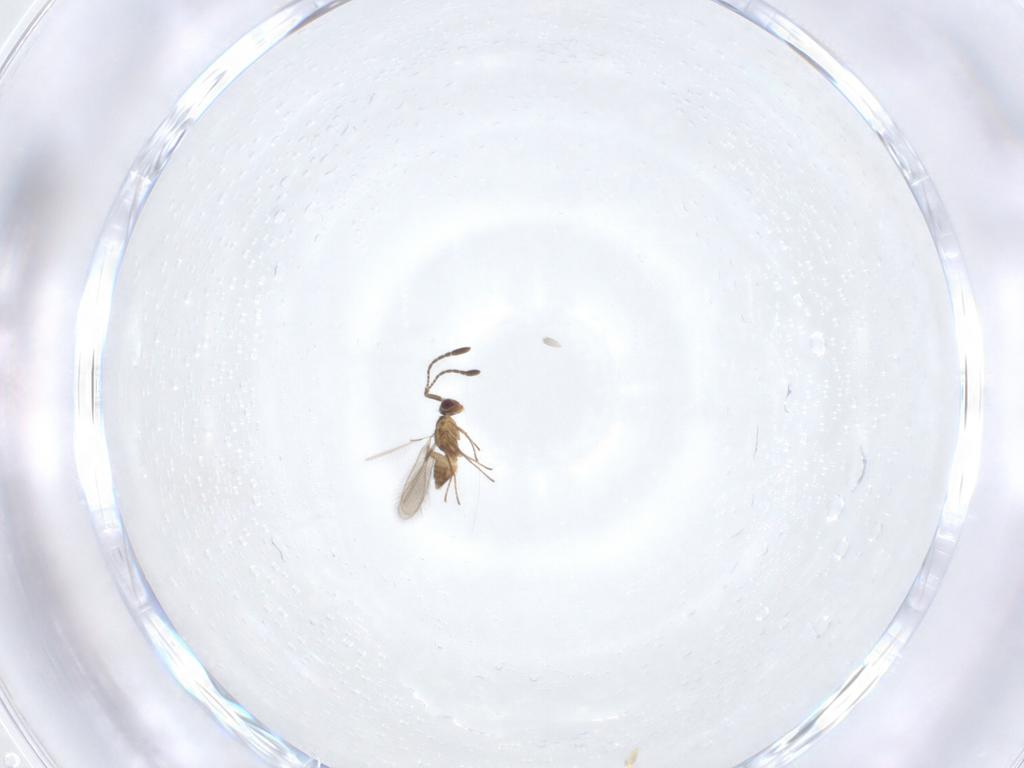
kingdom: Animalia
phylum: Arthropoda
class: Insecta
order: Hymenoptera
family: Mymaridae
